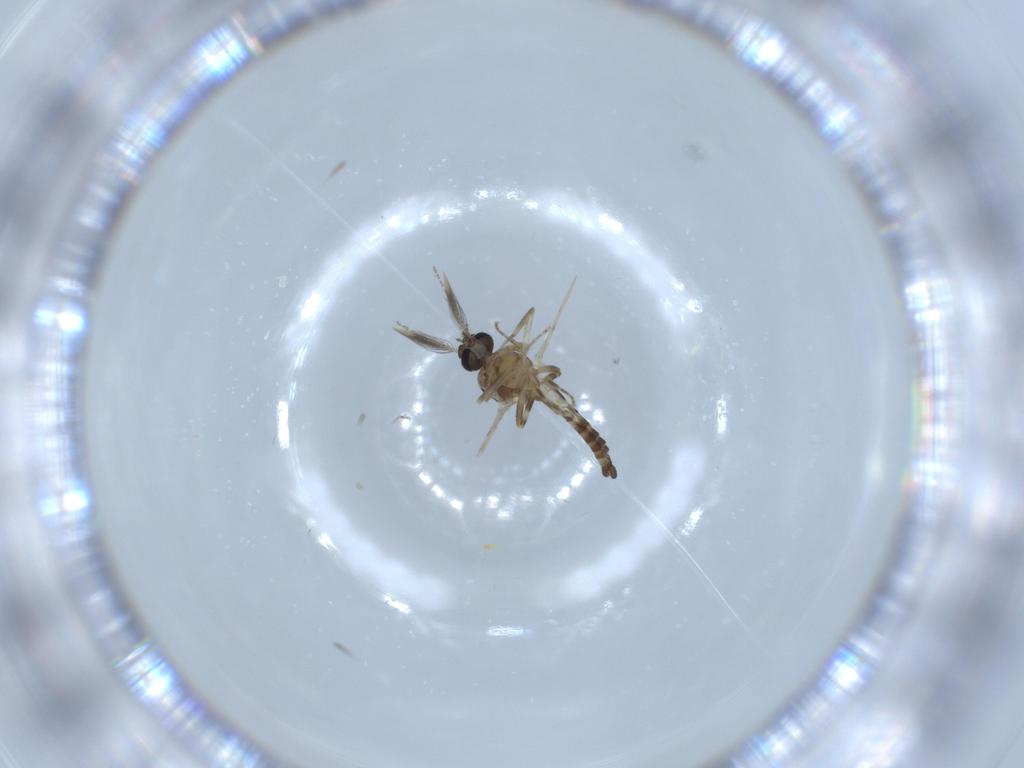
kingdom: Animalia
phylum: Arthropoda
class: Insecta
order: Diptera
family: Ceratopogonidae
